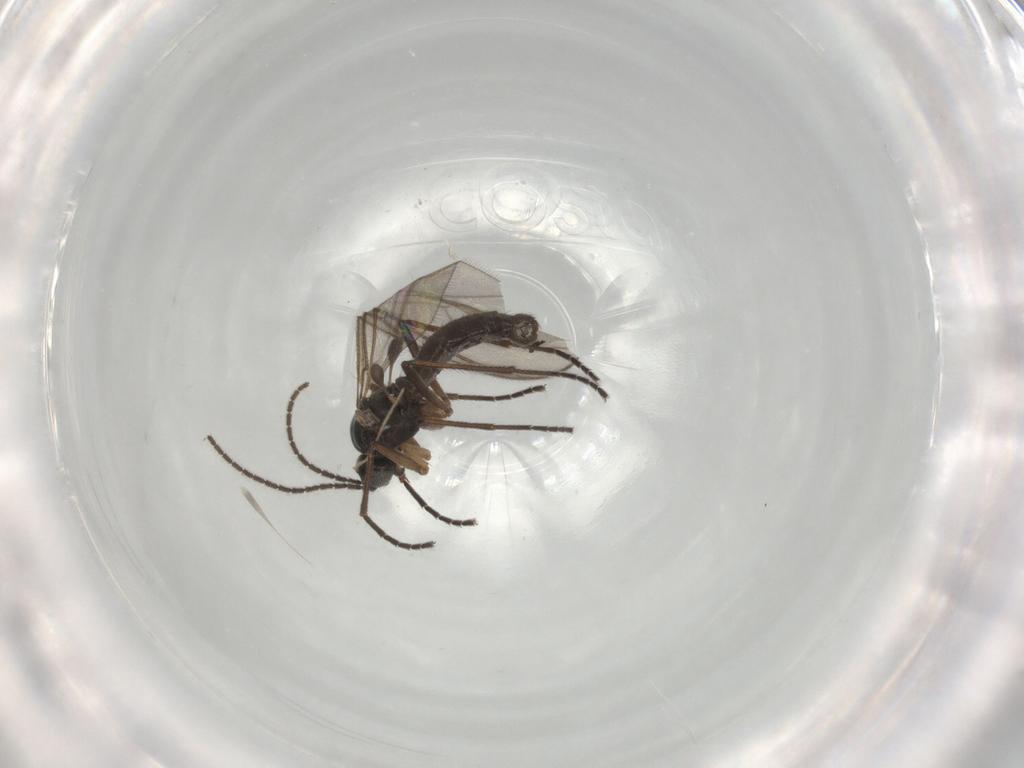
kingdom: Animalia
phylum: Arthropoda
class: Insecta
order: Diptera
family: Sciaridae
